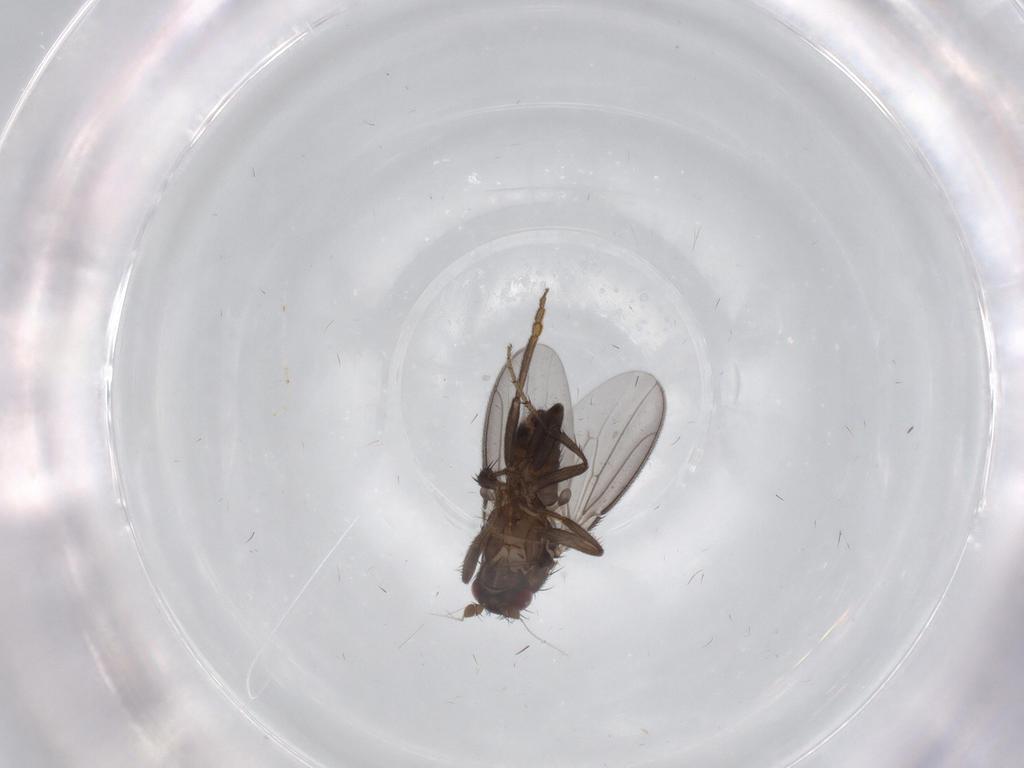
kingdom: Animalia
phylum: Arthropoda
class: Insecta
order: Diptera
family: Sphaeroceridae
